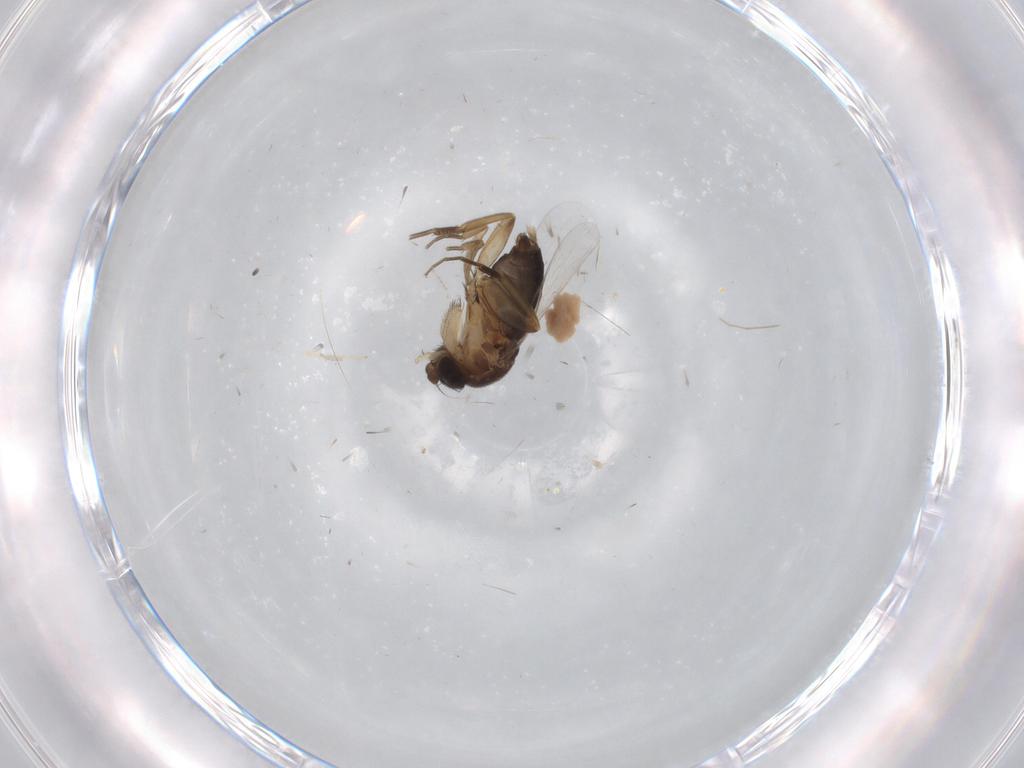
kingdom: Animalia
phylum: Arthropoda
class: Insecta
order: Diptera
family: Phoridae
